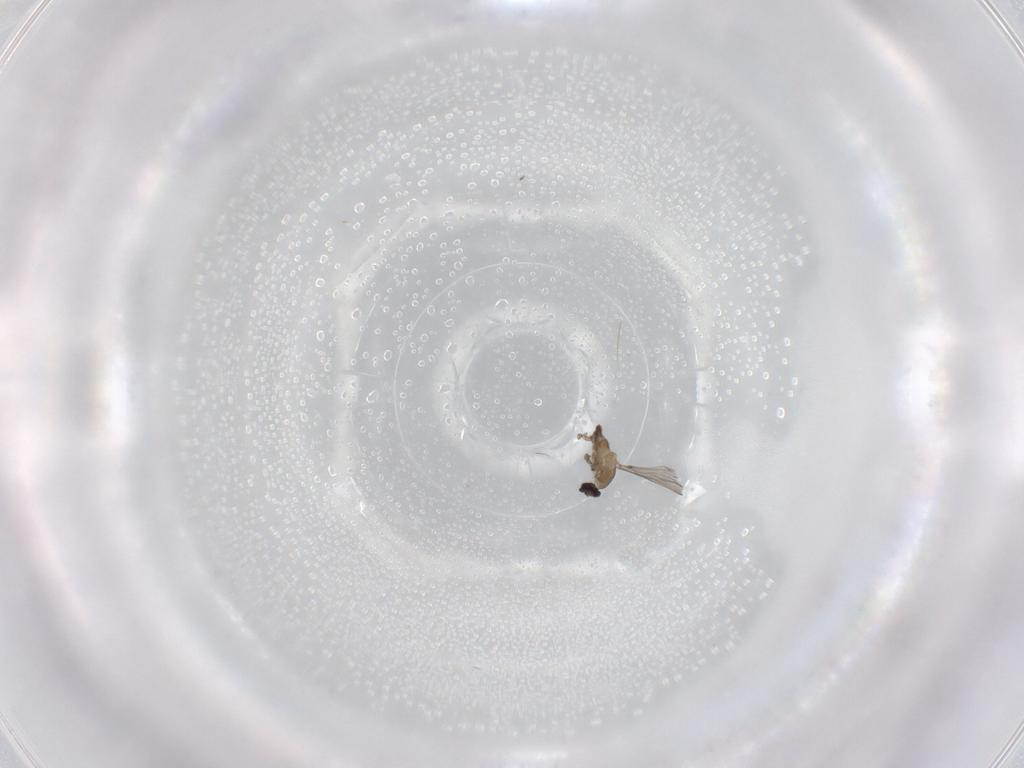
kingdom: Animalia
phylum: Arthropoda
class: Insecta
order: Diptera
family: Cecidomyiidae
